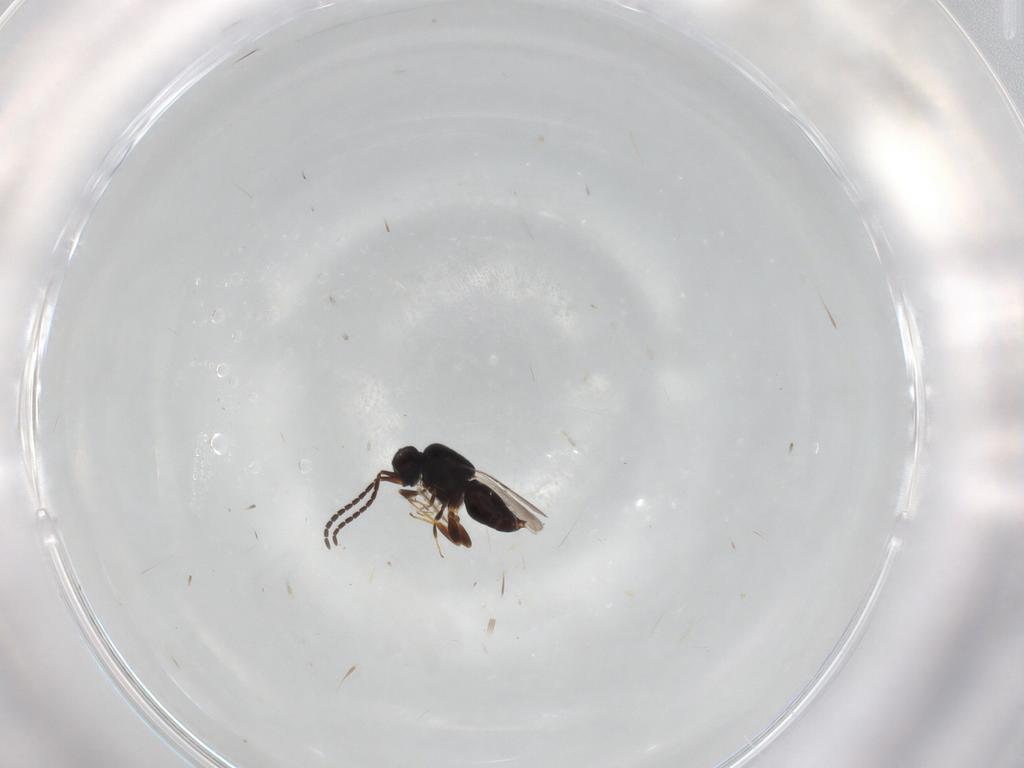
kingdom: Animalia
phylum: Arthropoda
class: Insecta
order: Hymenoptera
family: Ceraphronidae
